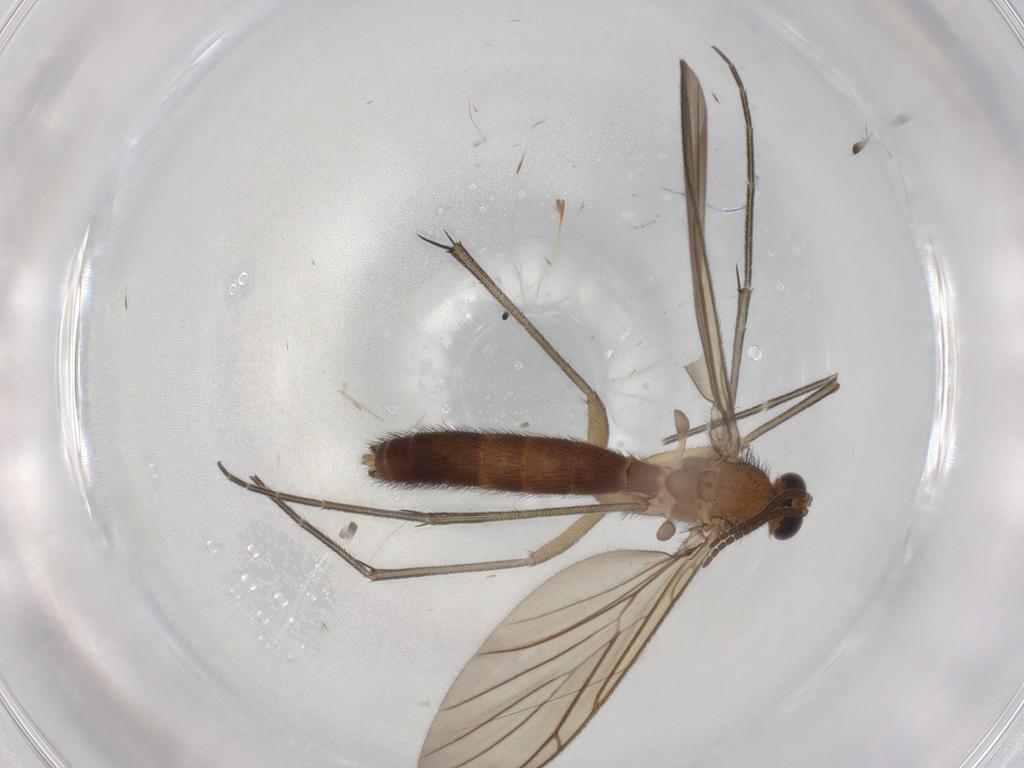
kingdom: Animalia
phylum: Arthropoda
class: Insecta
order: Diptera
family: Keroplatidae
